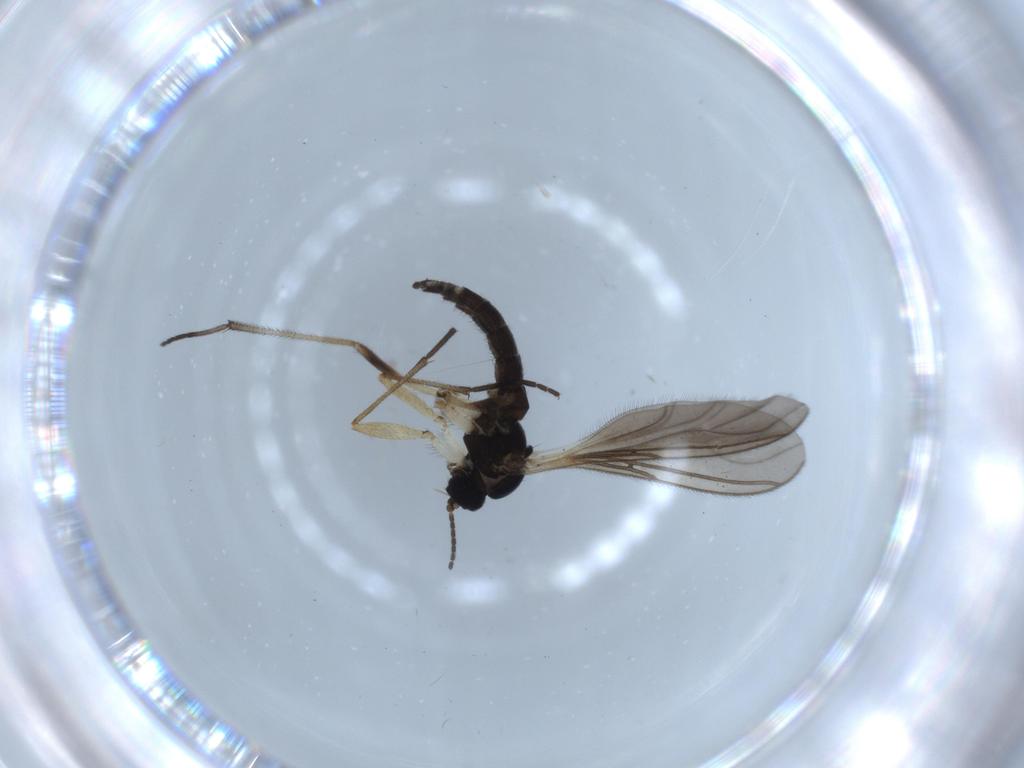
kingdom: Animalia
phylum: Arthropoda
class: Insecta
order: Diptera
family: Sciaridae
